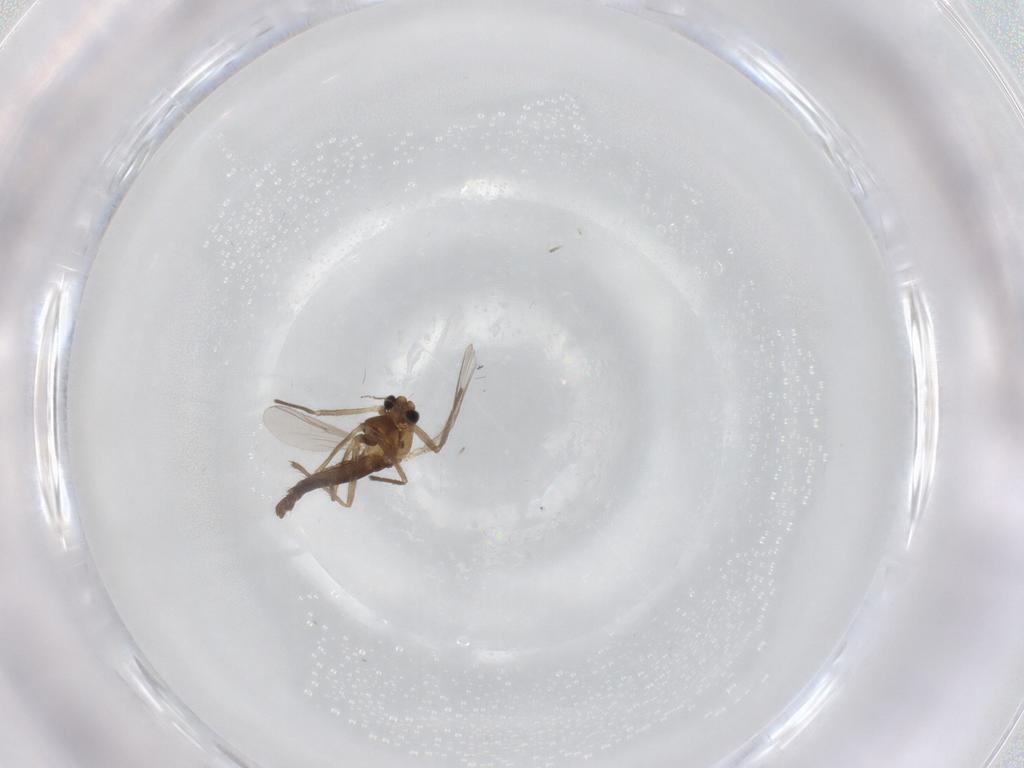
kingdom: Animalia
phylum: Arthropoda
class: Insecta
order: Diptera
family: Chironomidae
